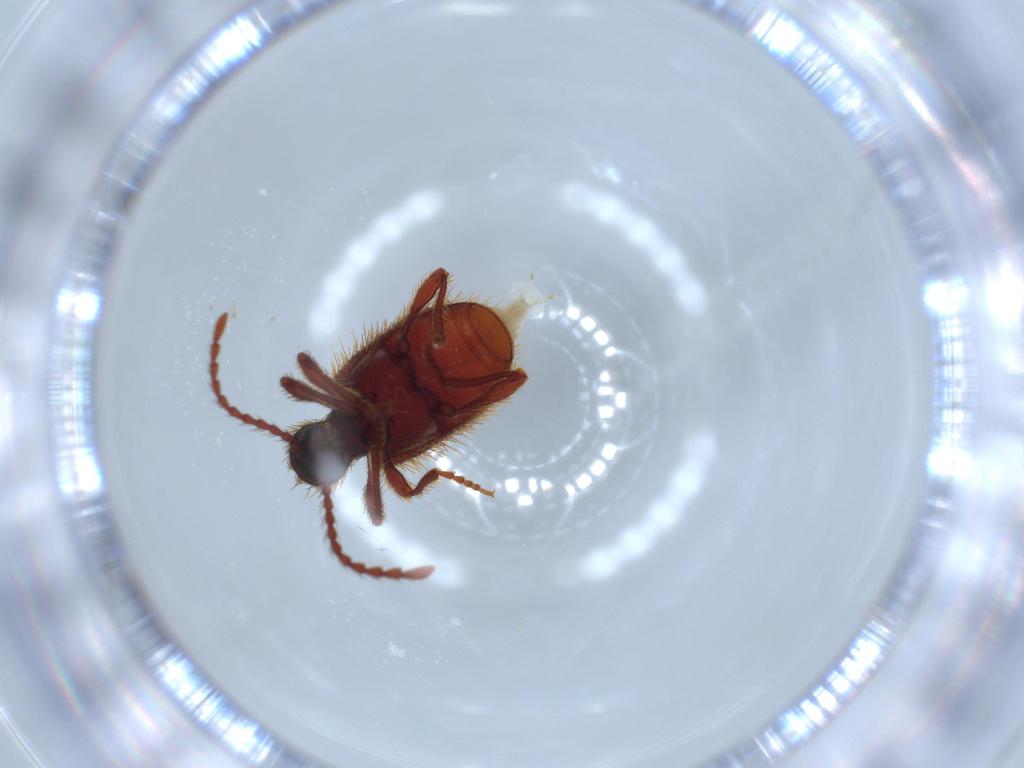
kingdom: Animalia
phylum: Arthropoda
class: Insecta
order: Coleoptera
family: Ptinidae
